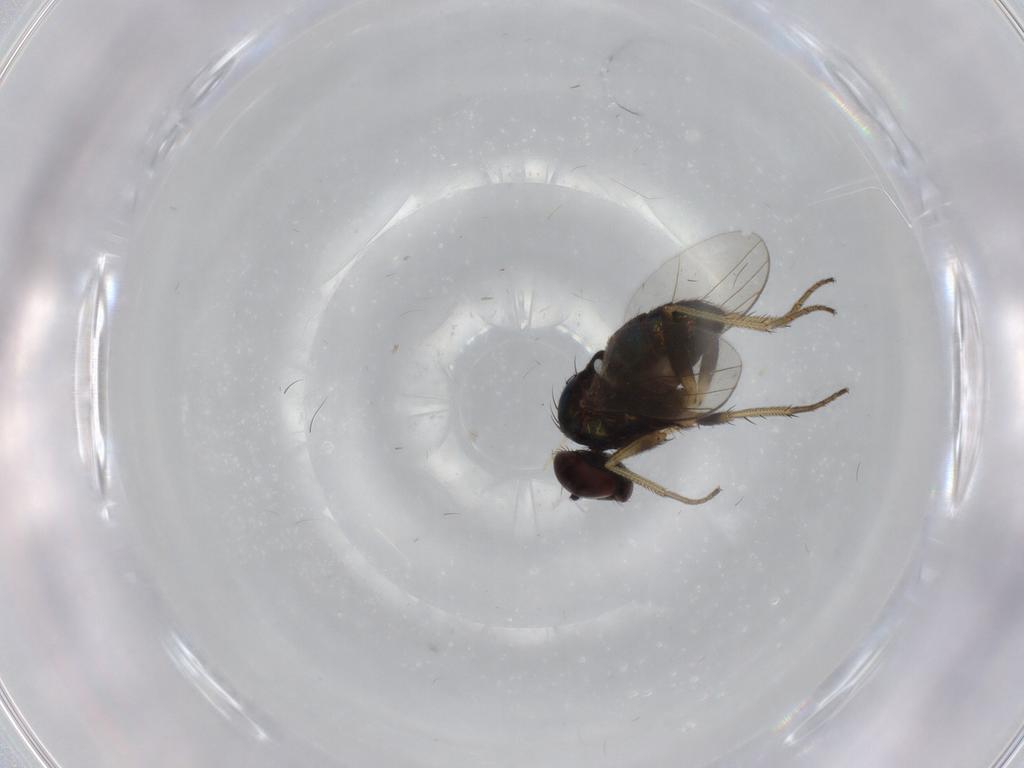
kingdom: Animalia
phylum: Arthropoda
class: Insecta
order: Diptera
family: Dolichopodidae
